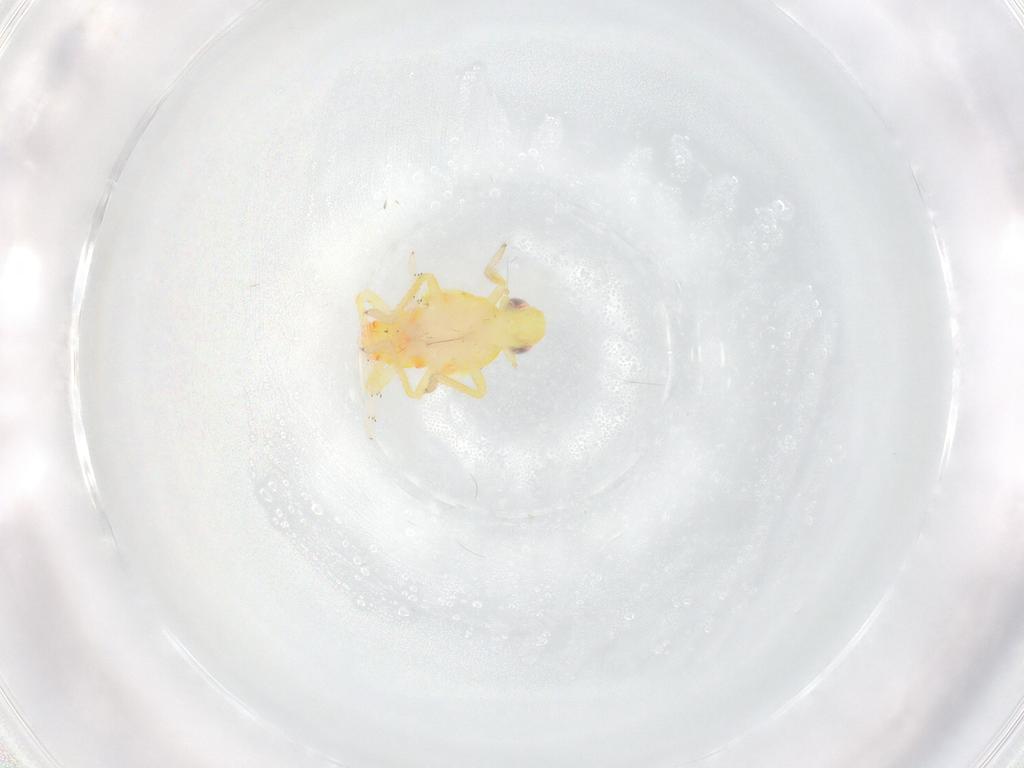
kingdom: Animalia
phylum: Arthropoda
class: Insecta
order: Hemiptera
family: Tropiduchidae
